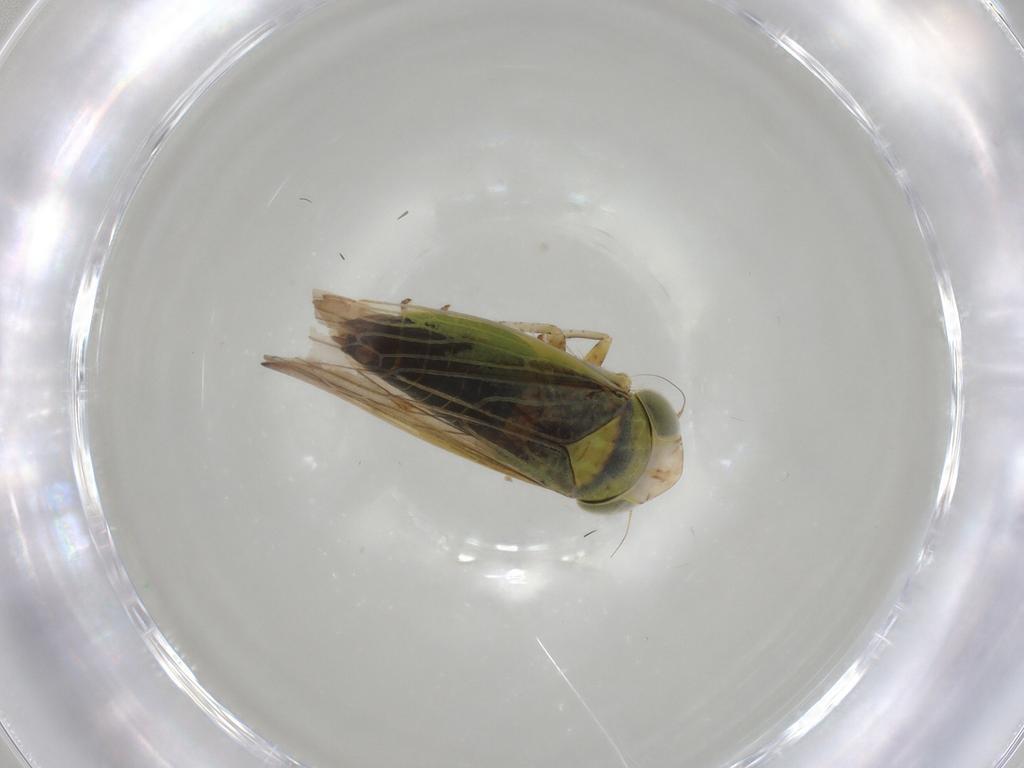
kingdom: Animalia
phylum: Arthropoda
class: Insecta
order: Hemiptera
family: Cicadellidae
